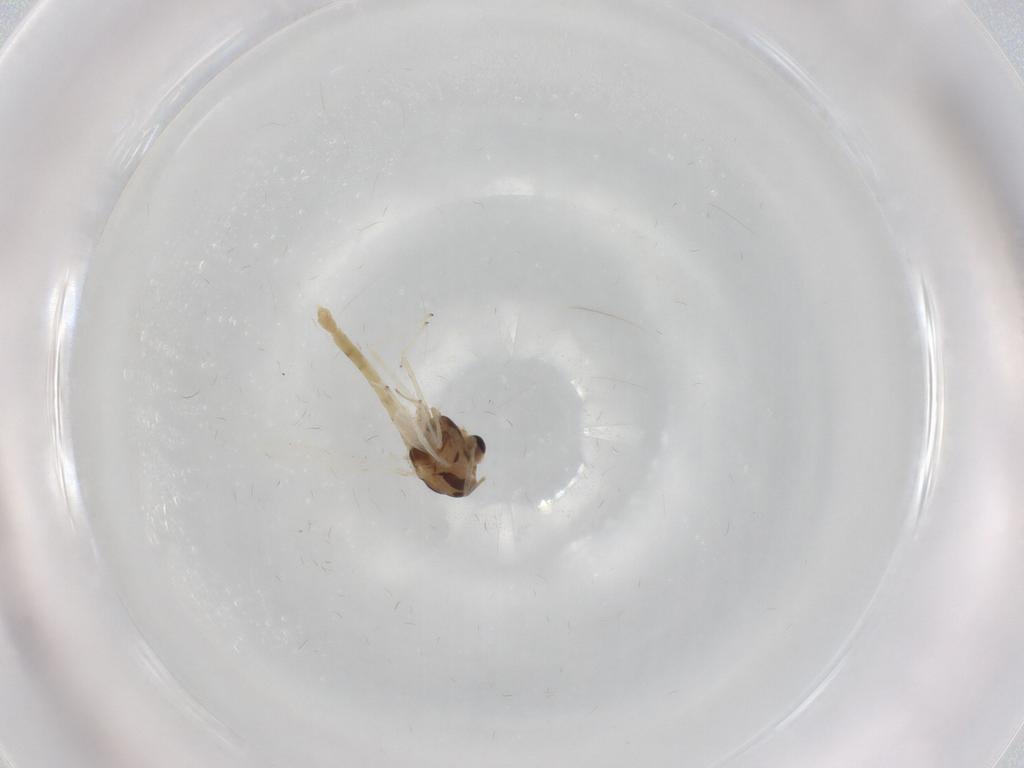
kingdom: Animalia
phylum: Arthropoda
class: Insecta
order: Diptera
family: Chironomidae
